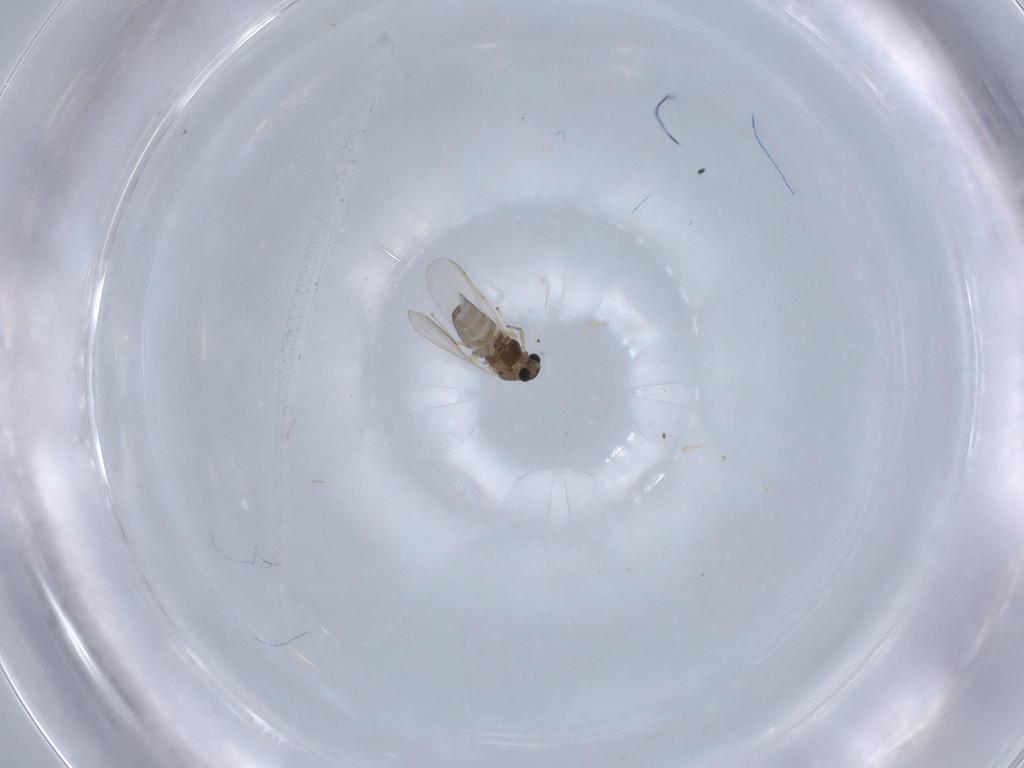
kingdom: Animalia
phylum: Arthropoda
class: Insecta
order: Diptera
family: Chironomidae
